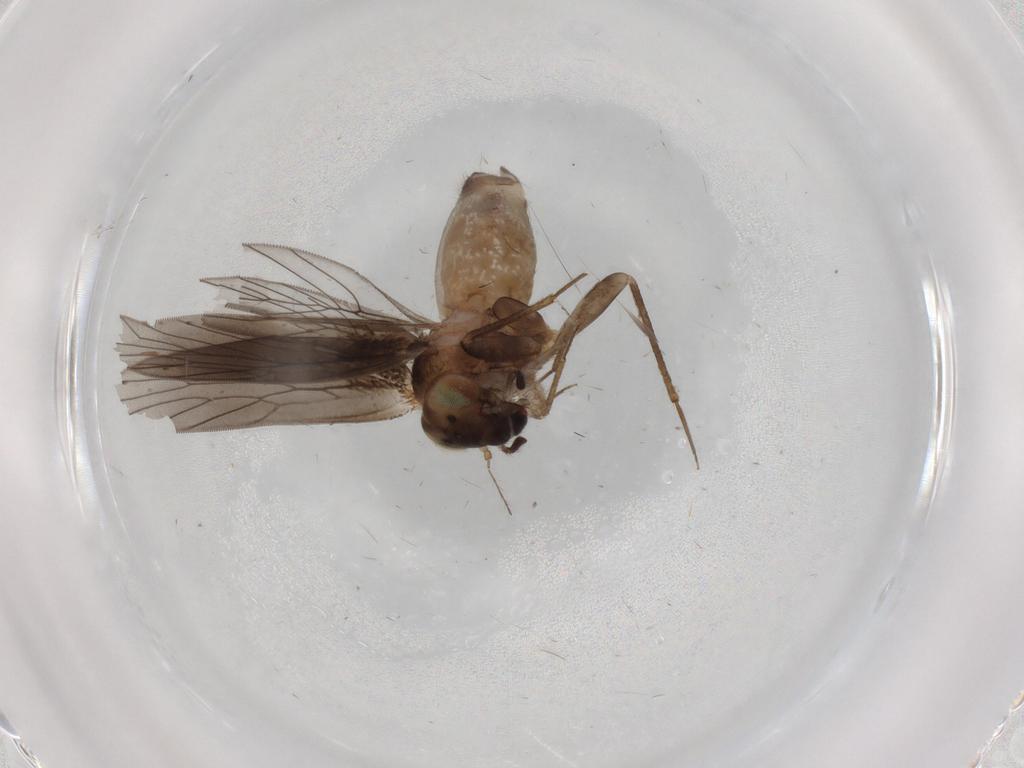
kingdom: Animalia
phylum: Arthropoda
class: Insecta
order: Psocodea
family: Lepidopsocidae
